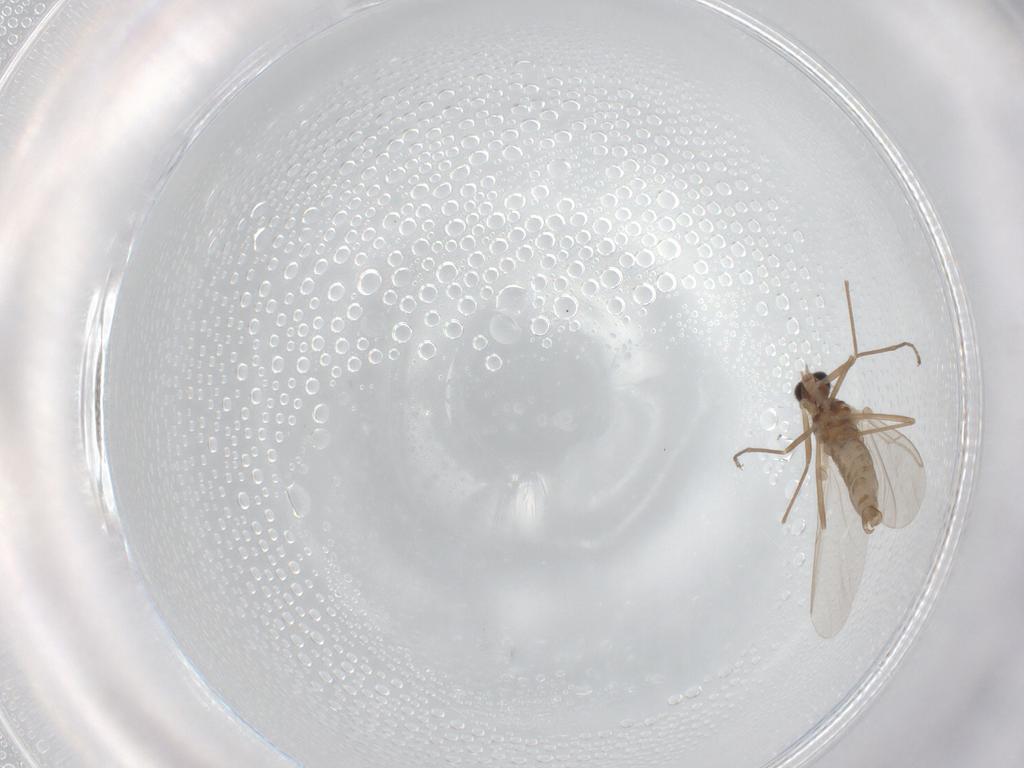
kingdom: Animalia
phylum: Arthropoda
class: Insecta
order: Diptera
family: Cecidomyiidae
